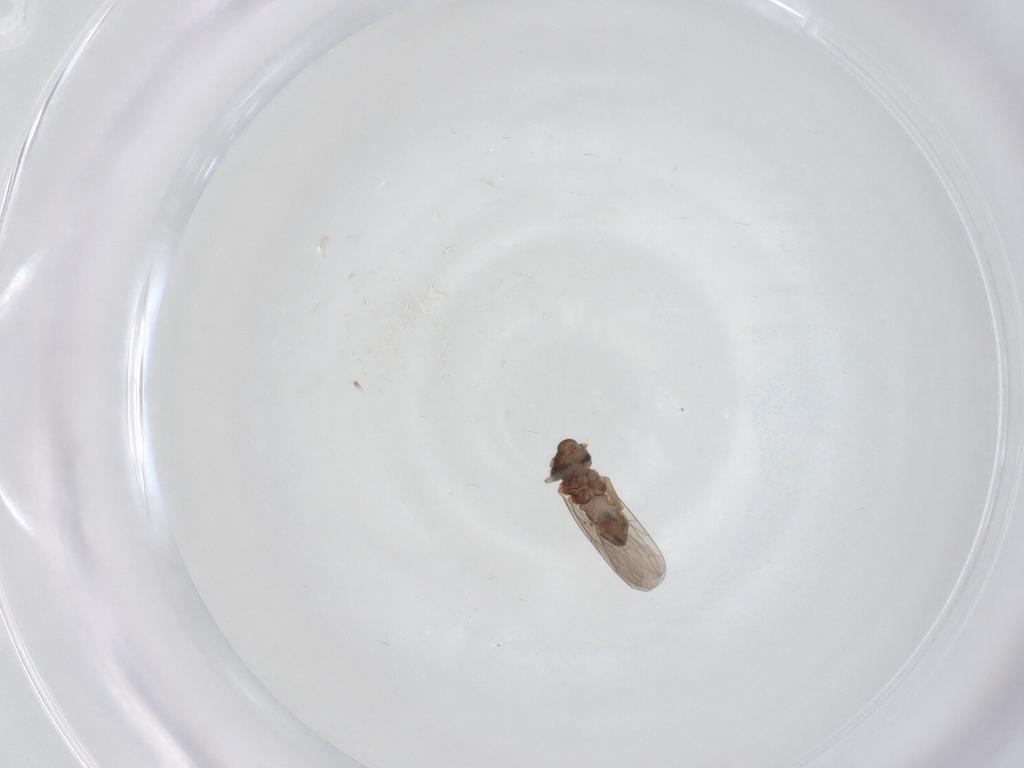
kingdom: Animalia
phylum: Arthropoda
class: Insecta
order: Psocodea
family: Lepidopsocidae
